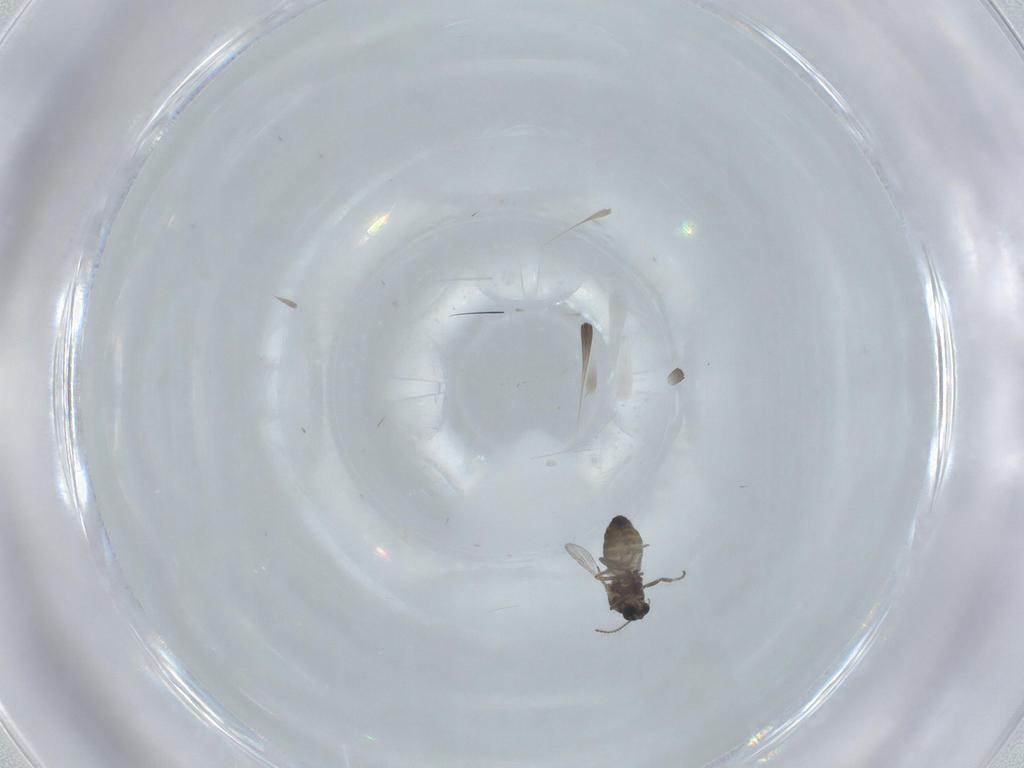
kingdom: Animalia
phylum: Arthropoda
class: Insecta
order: Diptera
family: Ceratopogonidae
